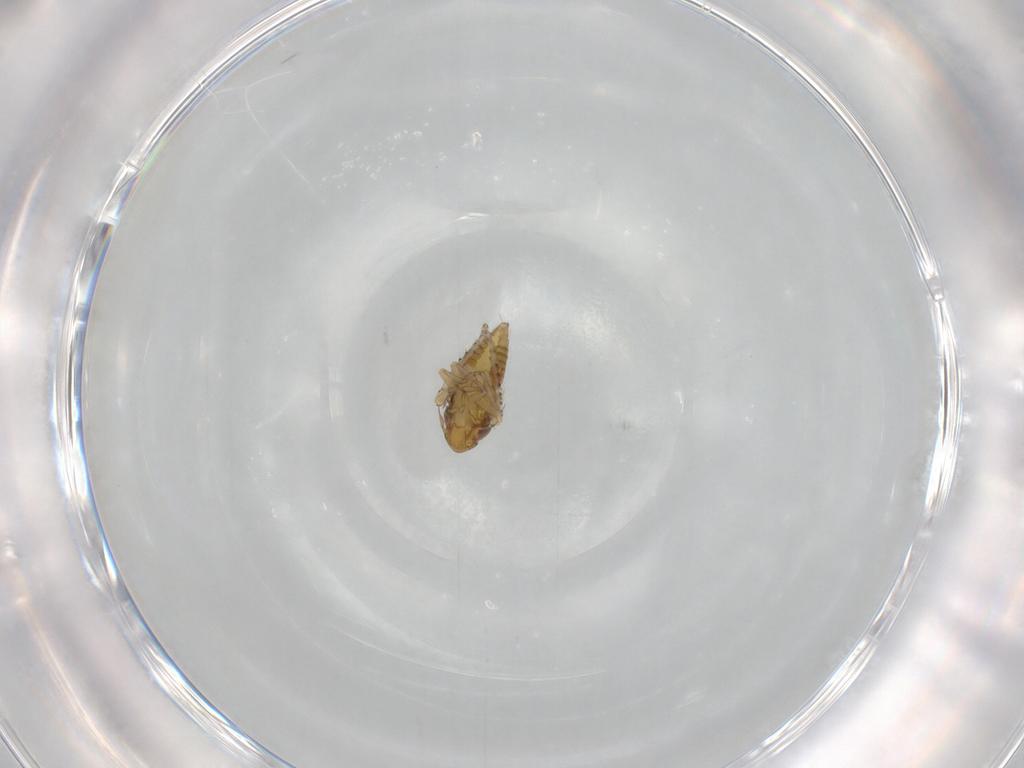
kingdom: Animalia
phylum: Arthropoda
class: Insecta
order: Hemiptera
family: Cicadellidae
